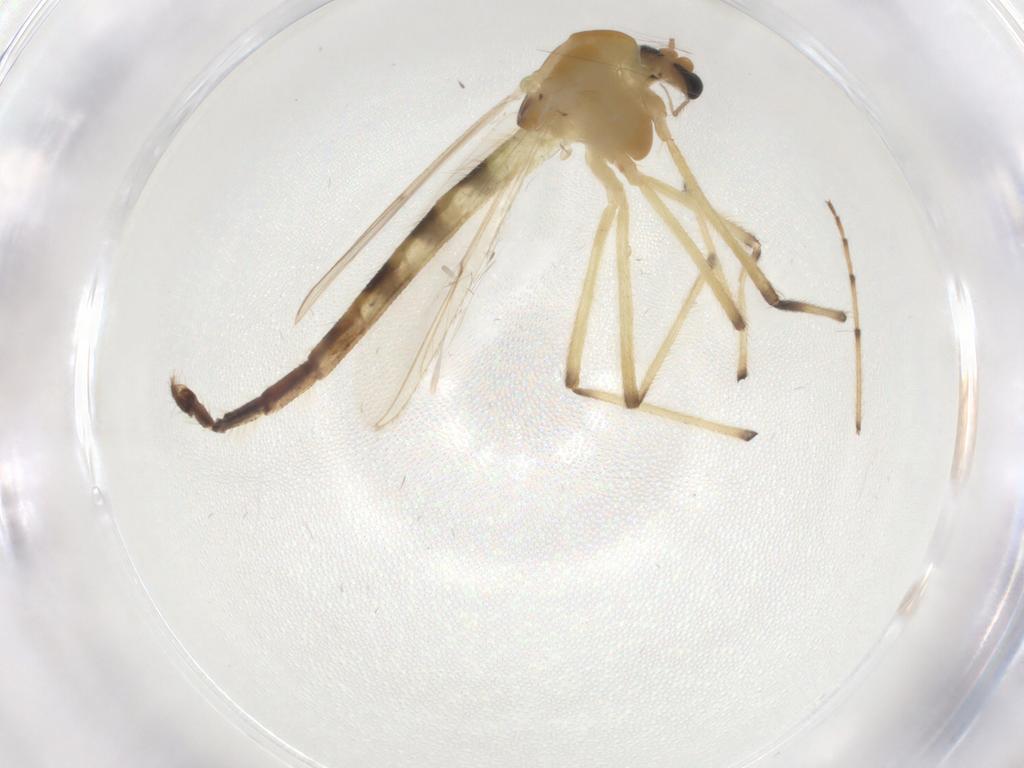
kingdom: Animalia
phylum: Arthropoda
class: Insecta
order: Diptera
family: Chironomidae
